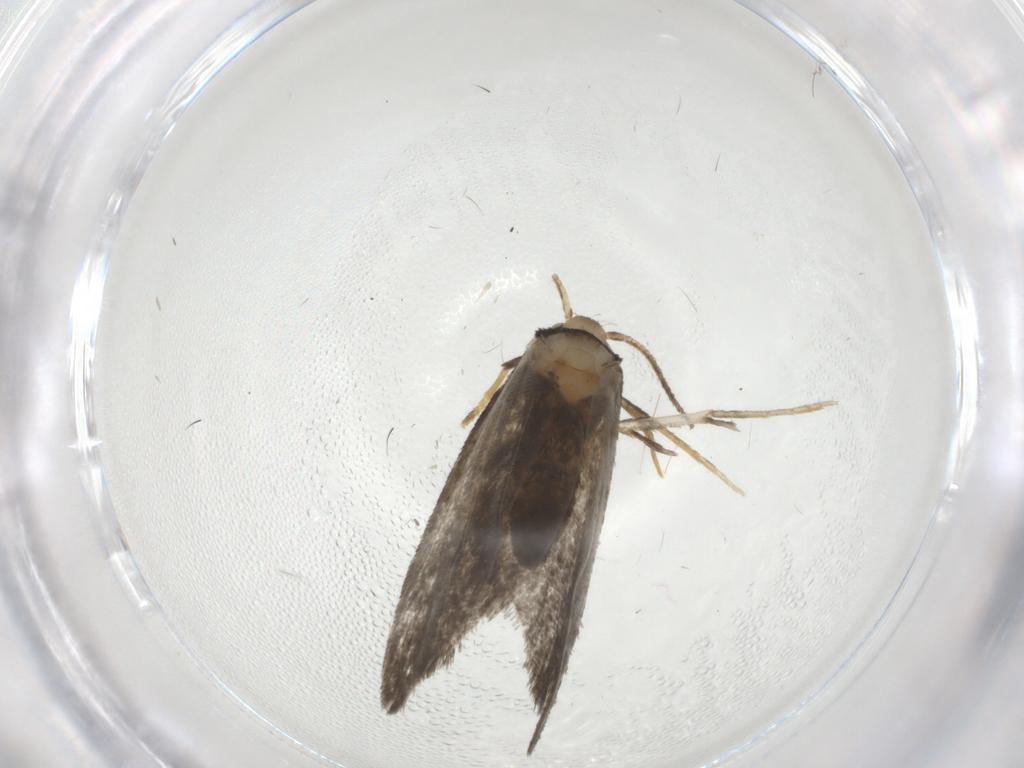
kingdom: Animalia
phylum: Arthropoda
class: Insecta
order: Lepidoptera
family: Psychidae
